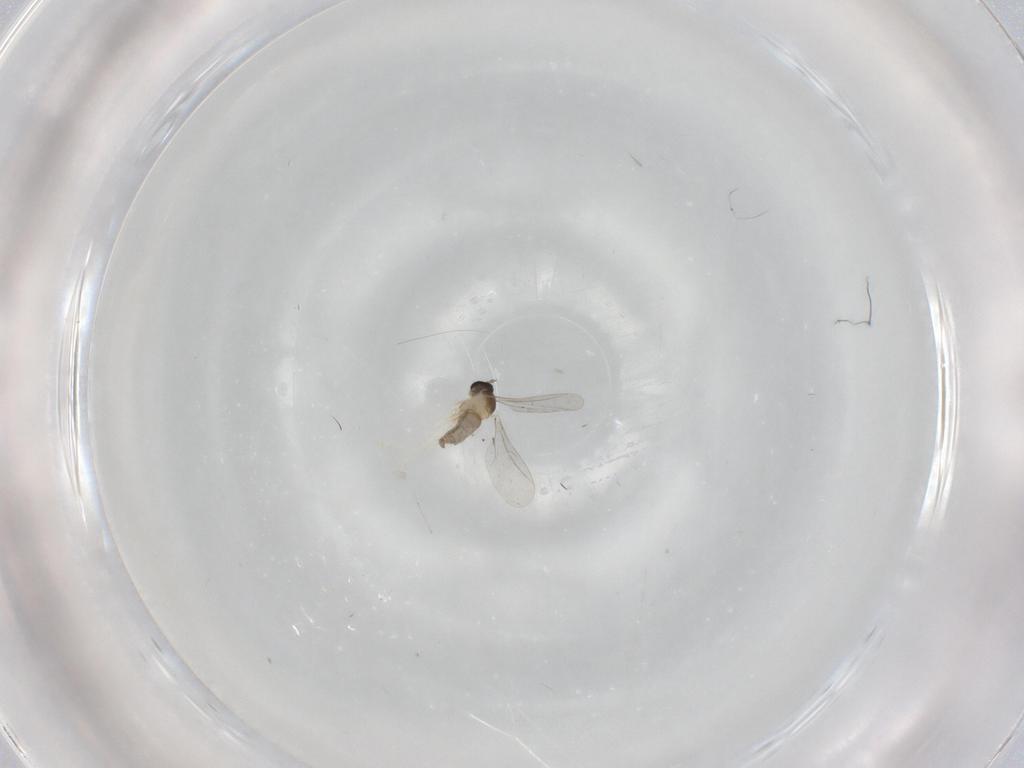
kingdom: Animalia
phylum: Arthropoda
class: Insecta
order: Diptera
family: Cecidomyiidae
